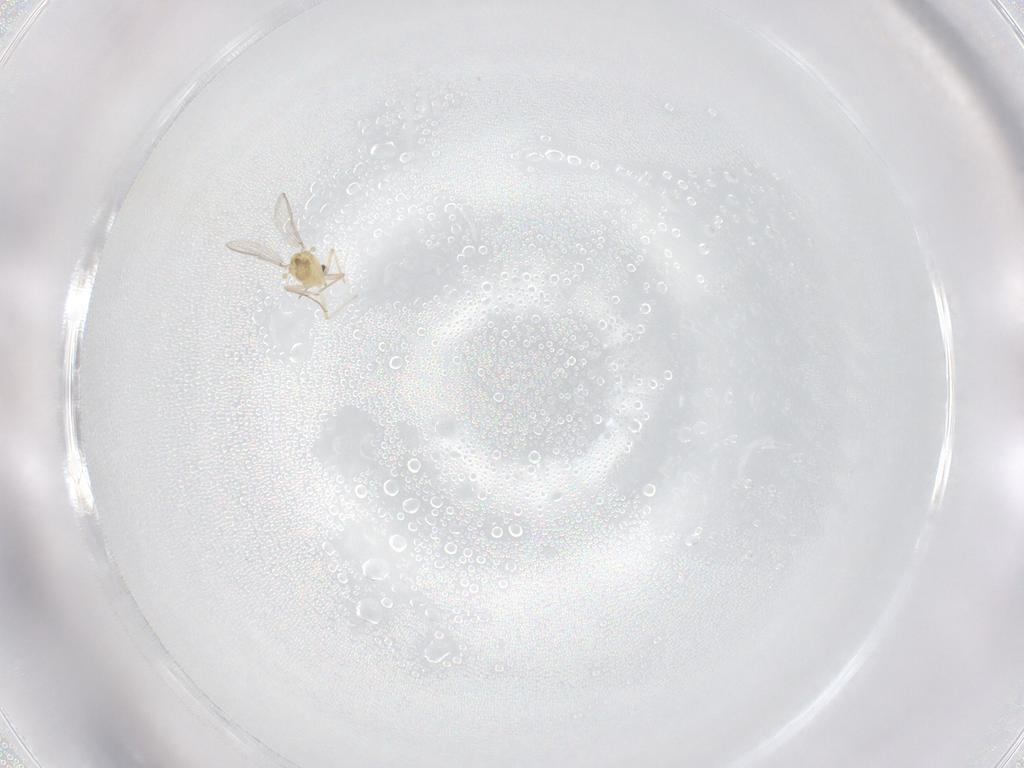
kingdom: Animalia
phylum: Arthropoda
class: Insecta
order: Diptera
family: Chironomidae
